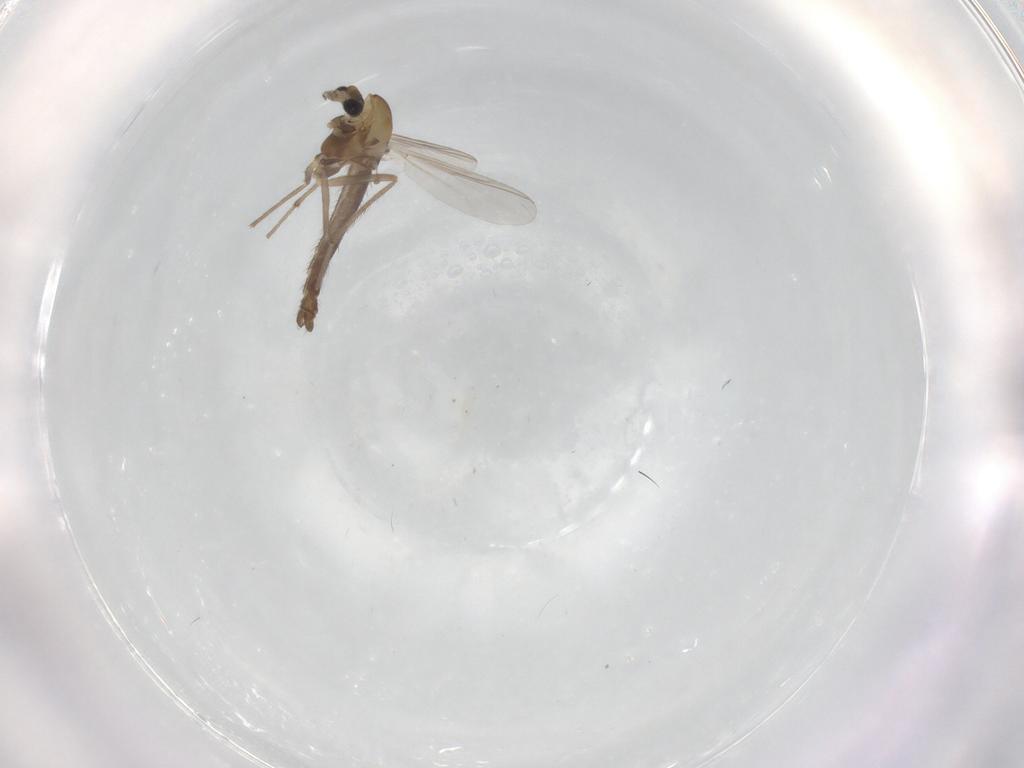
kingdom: Animalia
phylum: Arthropoda
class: Insecta
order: Diptera
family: Chironomidae
